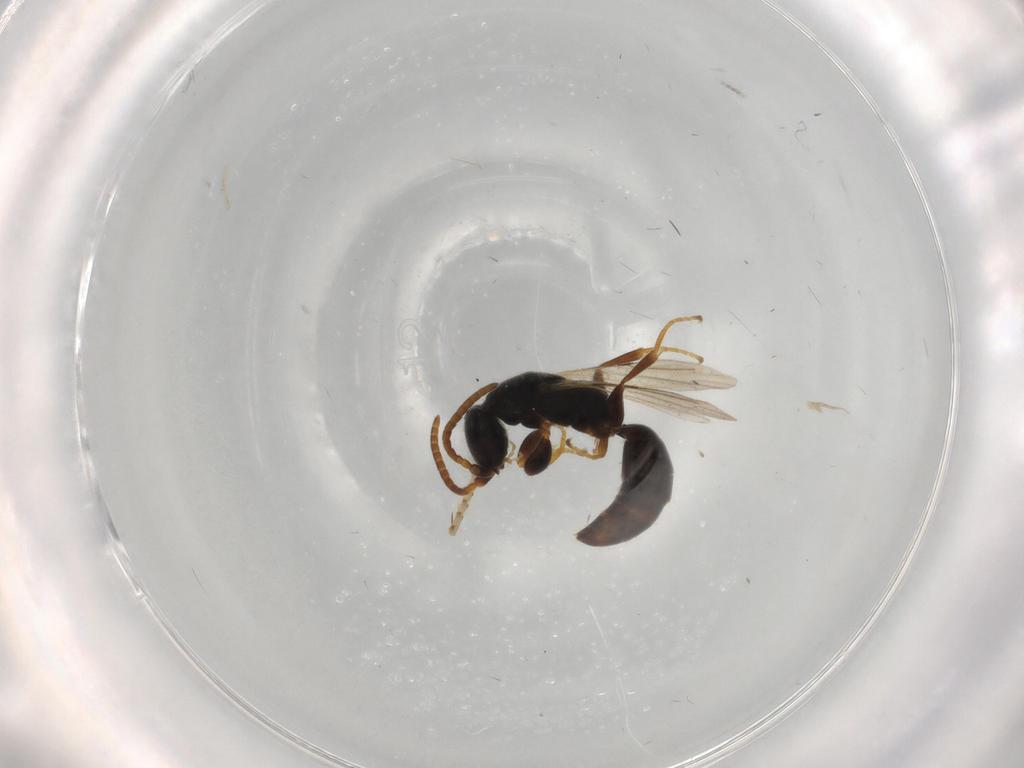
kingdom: Animalia
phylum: Arthropoda
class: Insecta
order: Hymenoptera
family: Bethylidae
